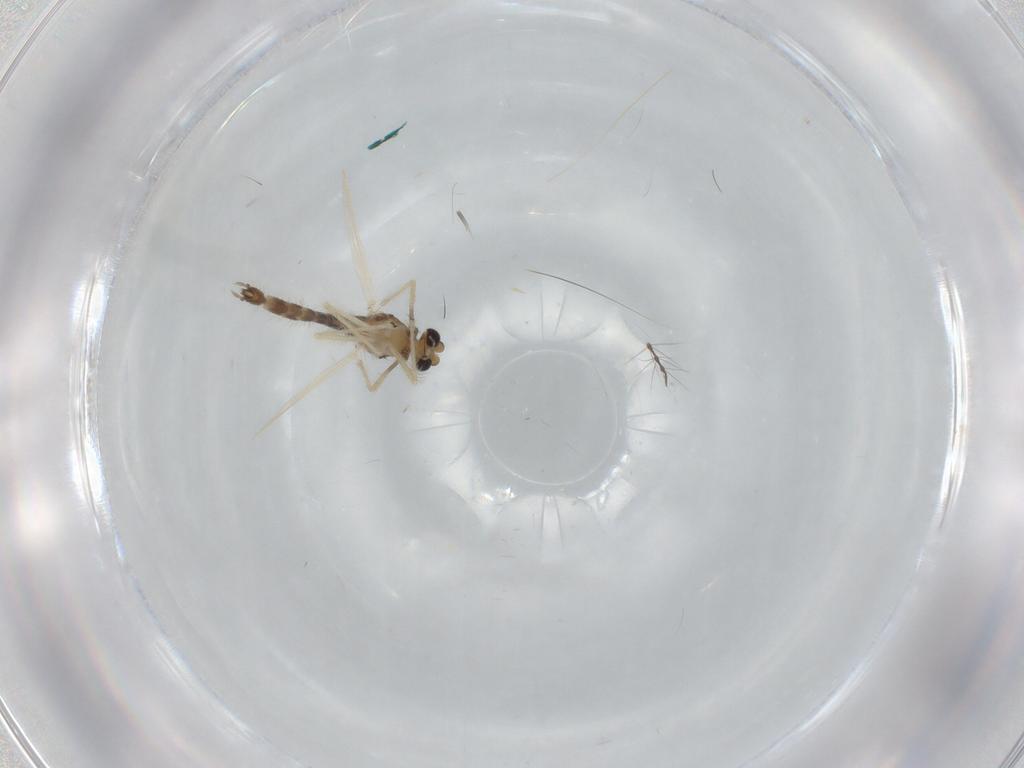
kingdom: Animalia
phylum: Arthropoda
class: Insecta
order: Diptera
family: Chironomidae
